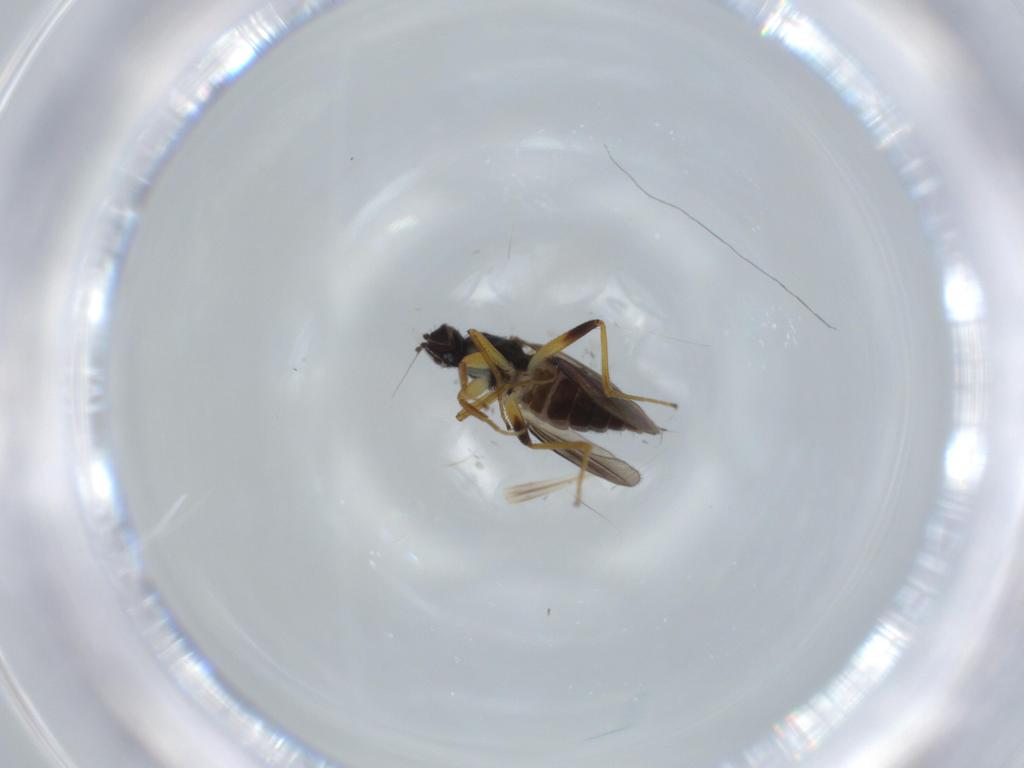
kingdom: Animalia
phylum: Arthropoda
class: Insecta
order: Diptera
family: Hybotidae
